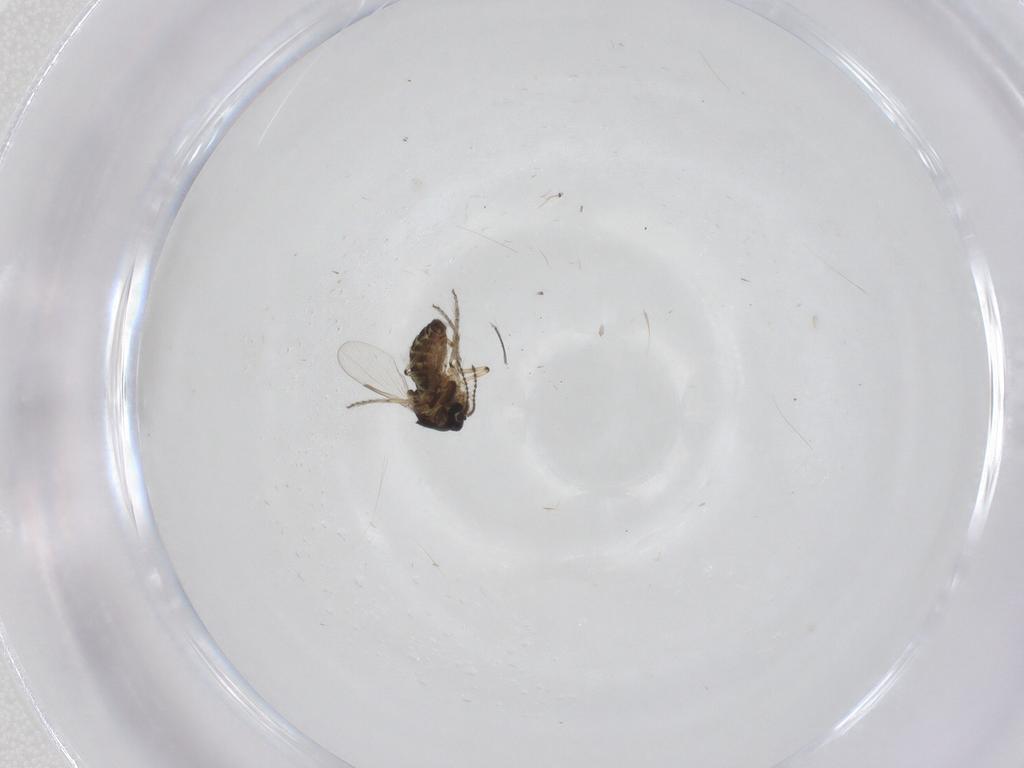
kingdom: Animalia
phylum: Arthropoda
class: Insecta
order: Diptera
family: Ceratopogonidae
